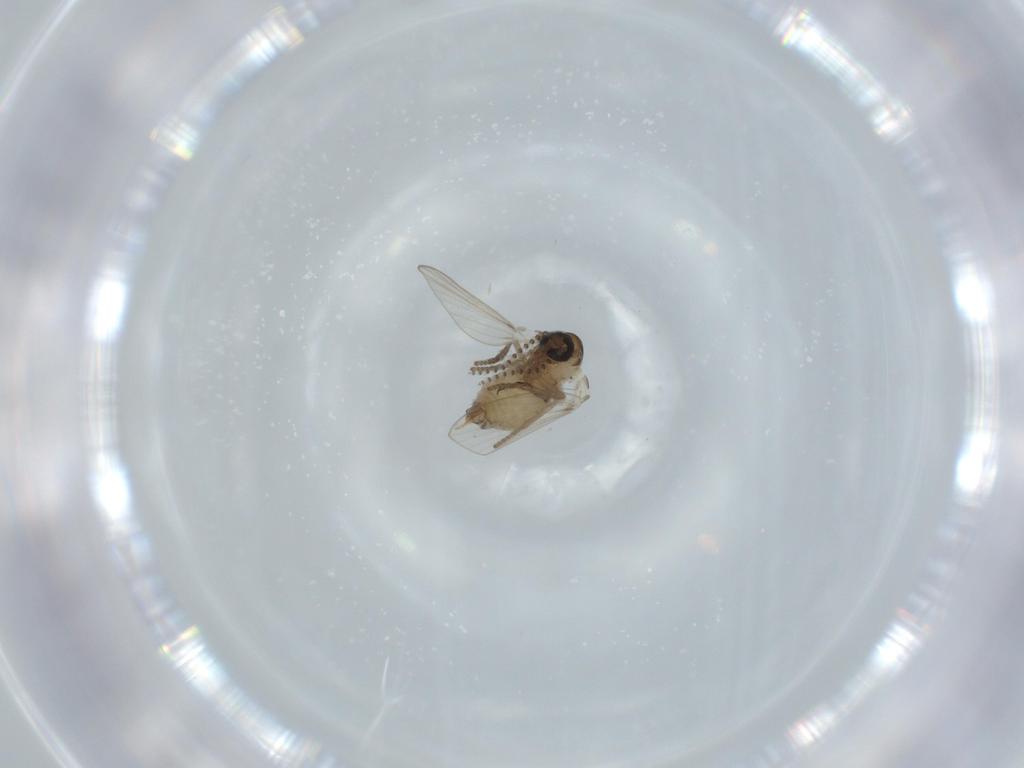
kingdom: Animalia
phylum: Arthropoda
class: Insecta
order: Diptera
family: Psychodidae
